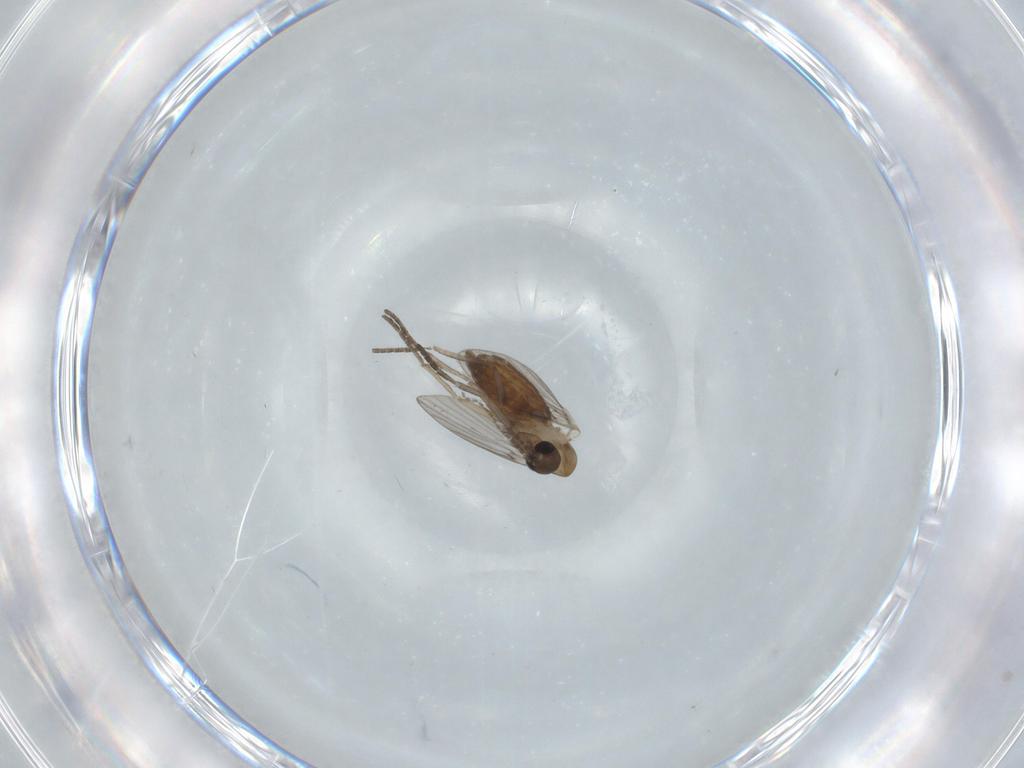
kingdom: Animalia
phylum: Arthropoda
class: Insecta
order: Diptera
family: Psychodidae
